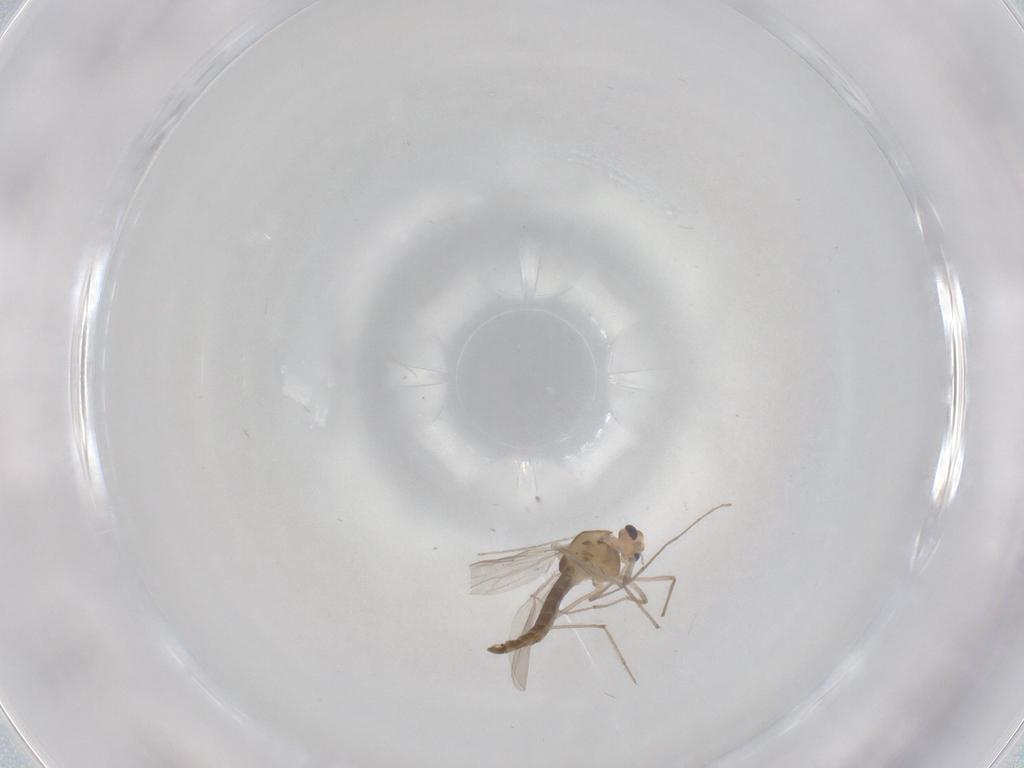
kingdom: Animalia
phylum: Arthropoda
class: Insecta
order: Diptera
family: Chironomidae
